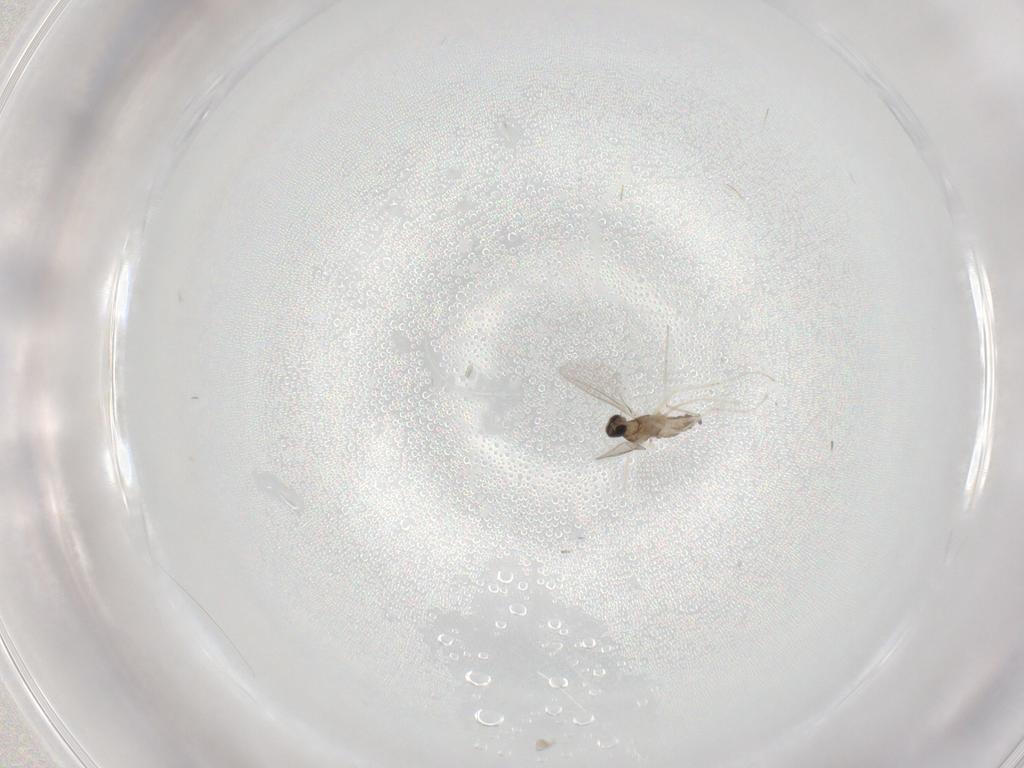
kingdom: Animalia
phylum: Arthropoda
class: Insecta
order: Diptera
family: Cecidomyiidae
